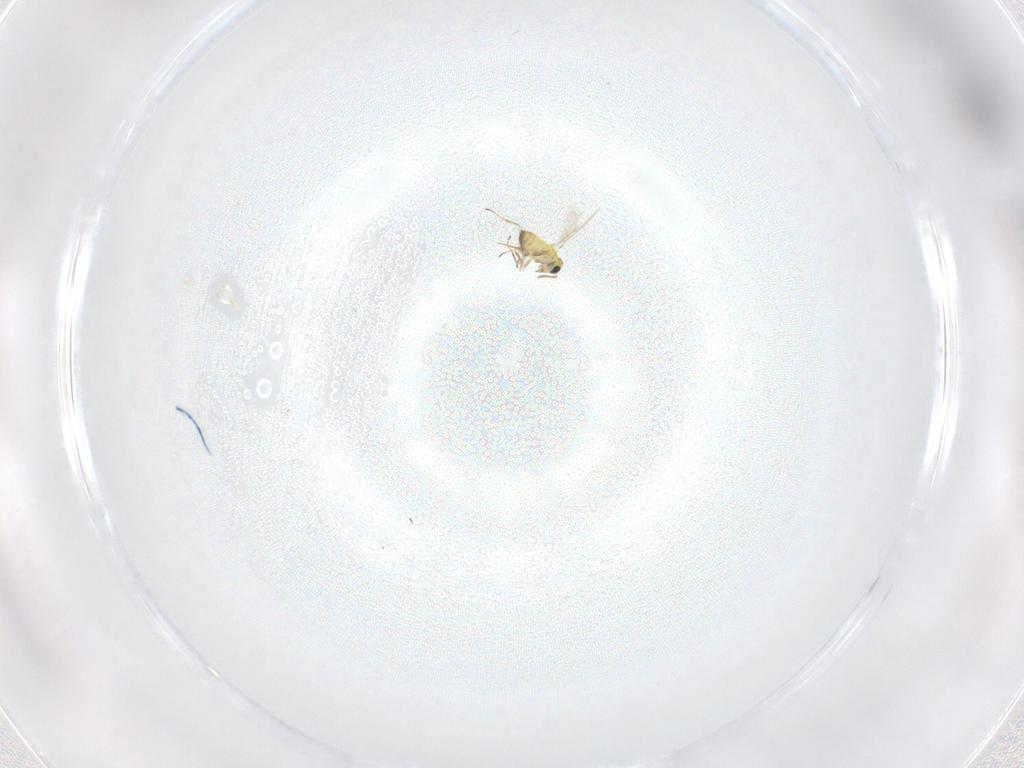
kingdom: Animalia
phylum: Arthropoda
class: Insecta
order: Hymenoptera
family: Trichogrammatidae
